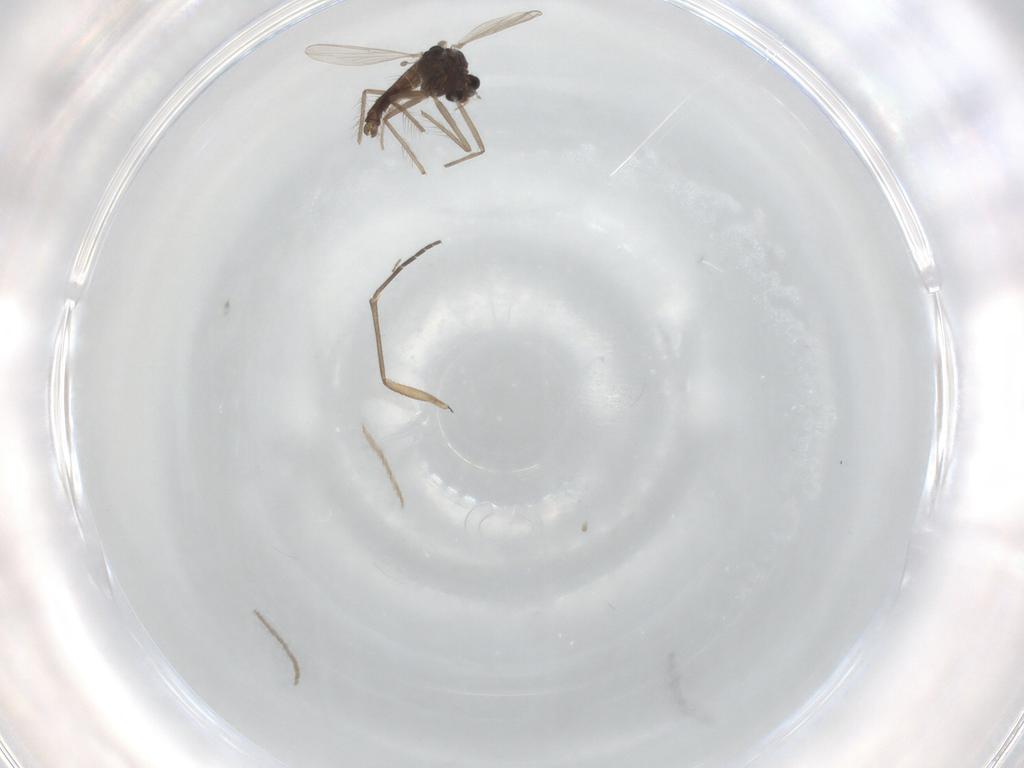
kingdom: Animalia
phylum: Arthropoda
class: Insecta
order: Diptera
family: Chironomidae
